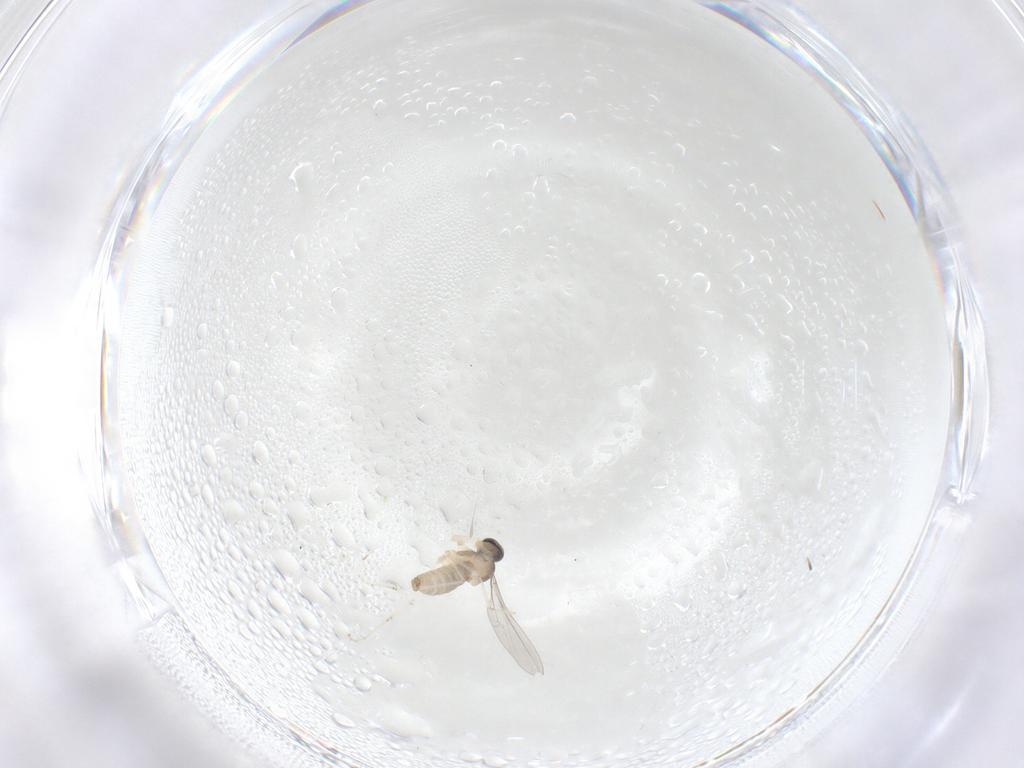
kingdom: Animalia
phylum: Arthropoda
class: Insecta
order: Diptera
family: Cecidomyiidae
